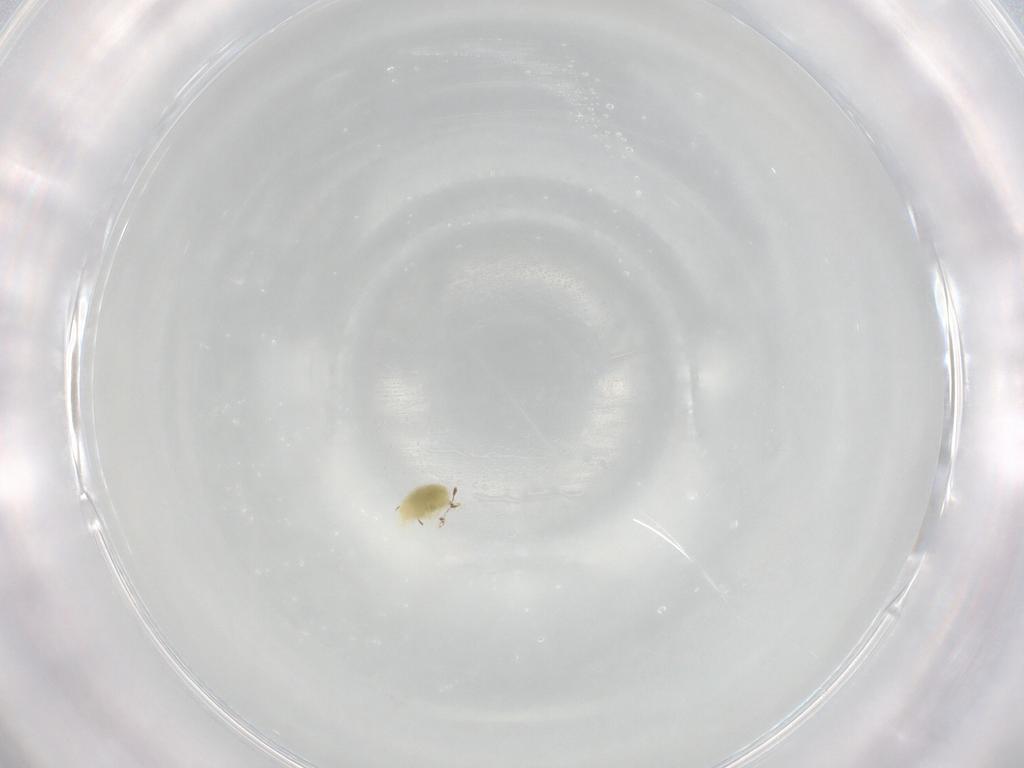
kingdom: Animalia
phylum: Arthropoda
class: Arachnida
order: Trombidiformes
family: Tetranychidae
